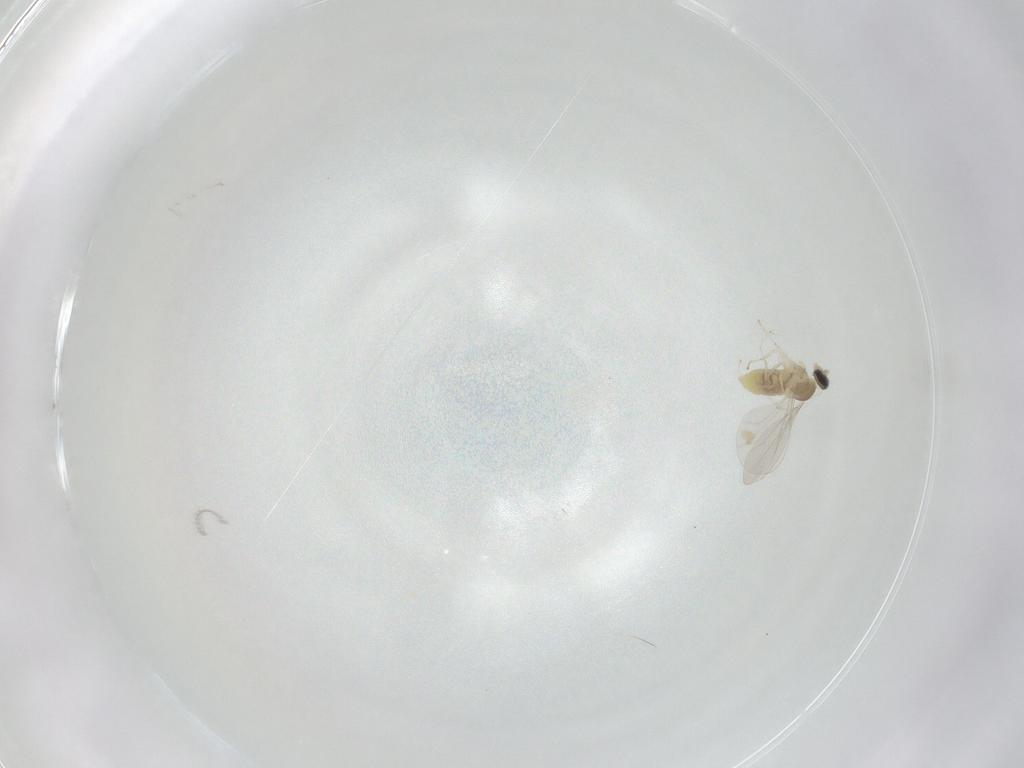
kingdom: Animalia
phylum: Arthropoda
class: Insecta
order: Diptera
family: Cecidomyiidae
